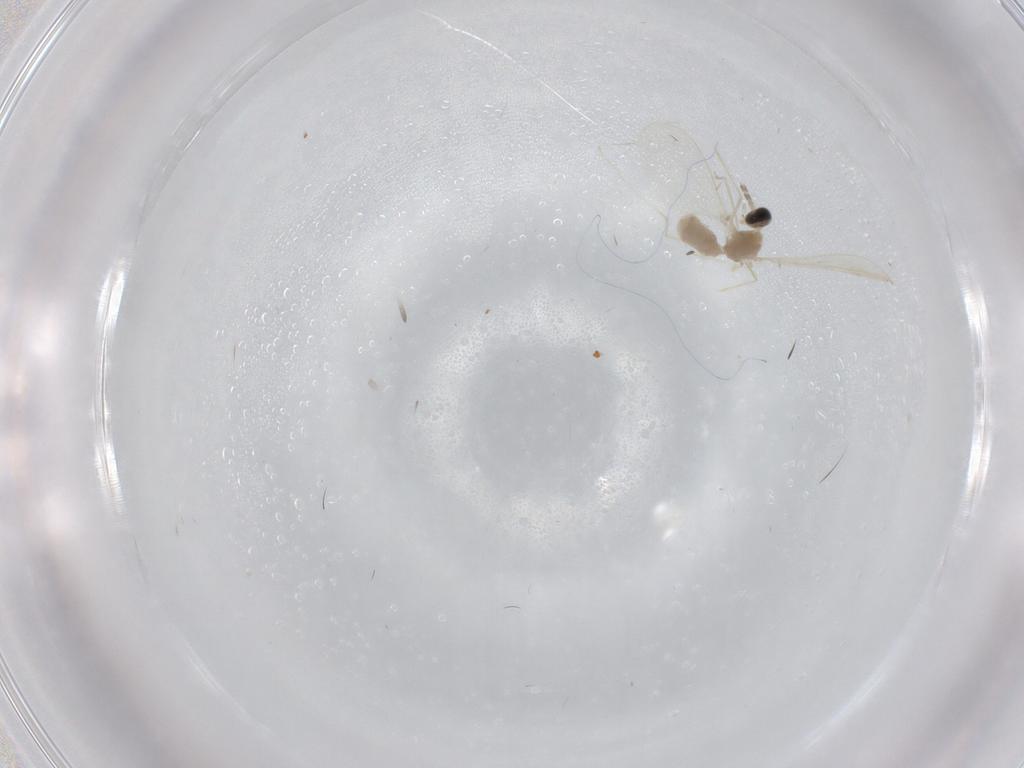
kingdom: Animalia
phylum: Arthropoda
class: Insecta
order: Diptera
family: Cecidomyiidae
